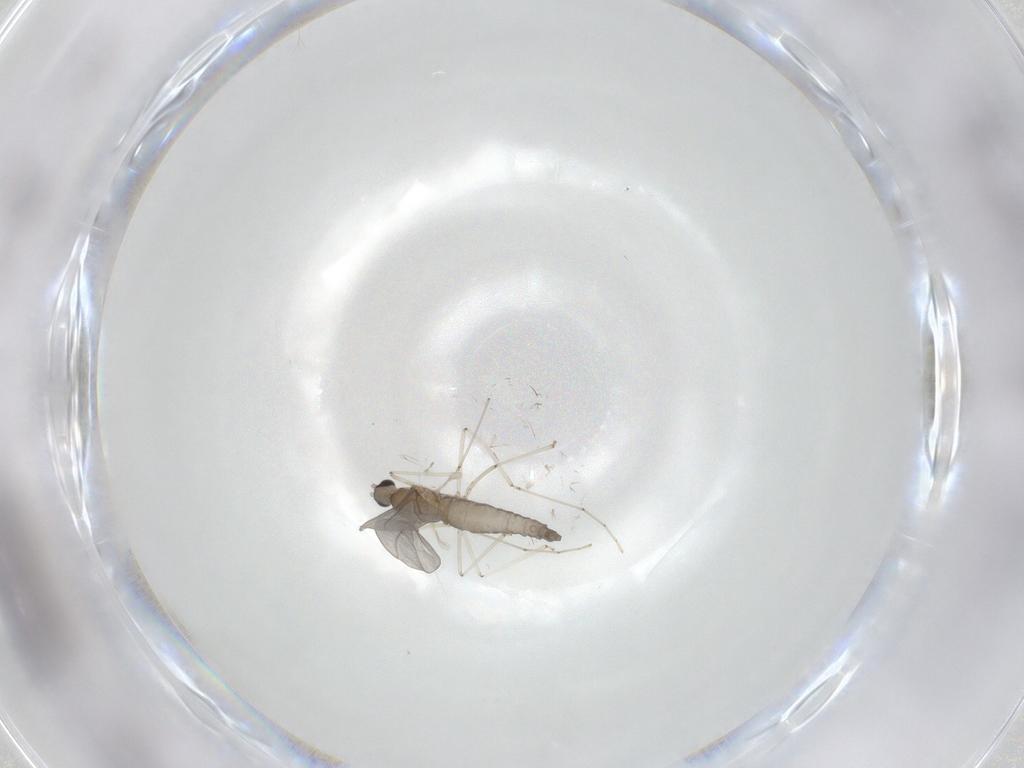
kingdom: Animalia
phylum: Arthropoda
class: Insecta
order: Diptera
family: Cecidomyiidae
